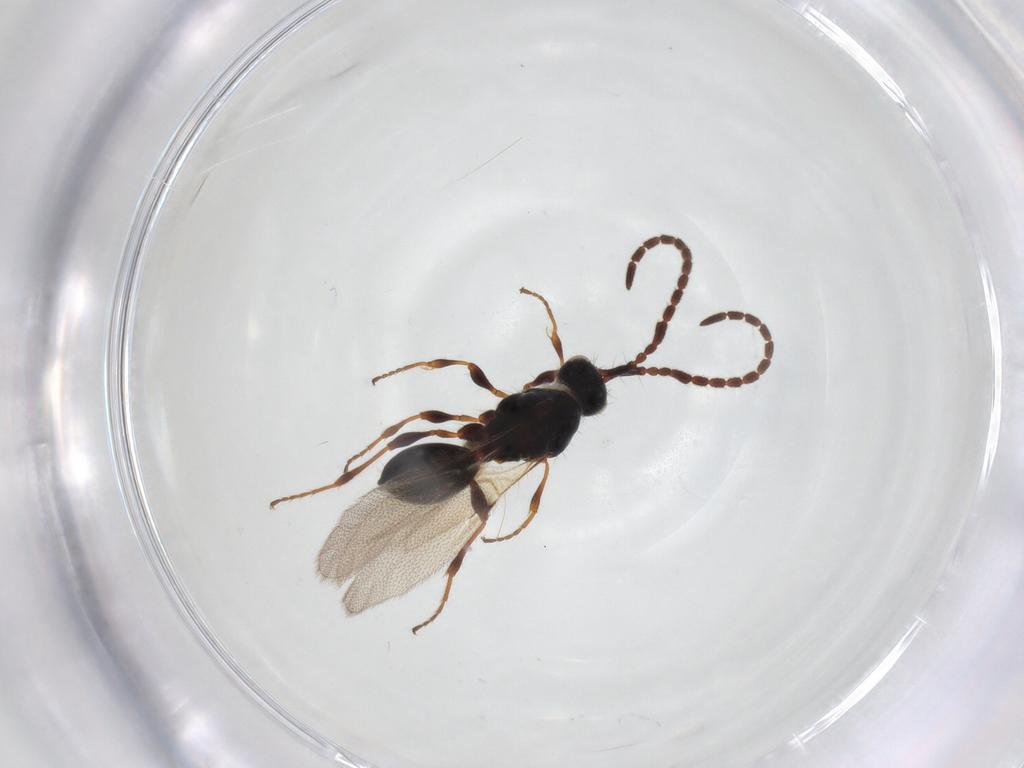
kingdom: Animalia
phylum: Arthropoda
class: Insecta
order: Hymenoptera
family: Diapriidae
